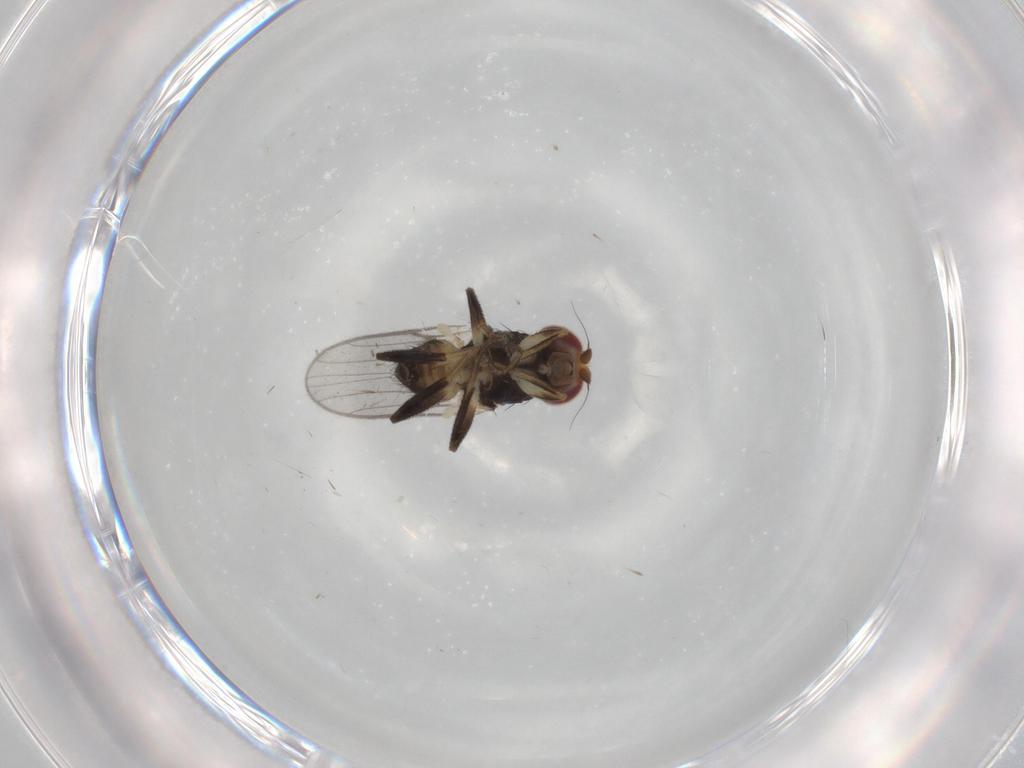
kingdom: Animalia
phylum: Arthropoda
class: Insecta
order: Diptera
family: Chloropidae
